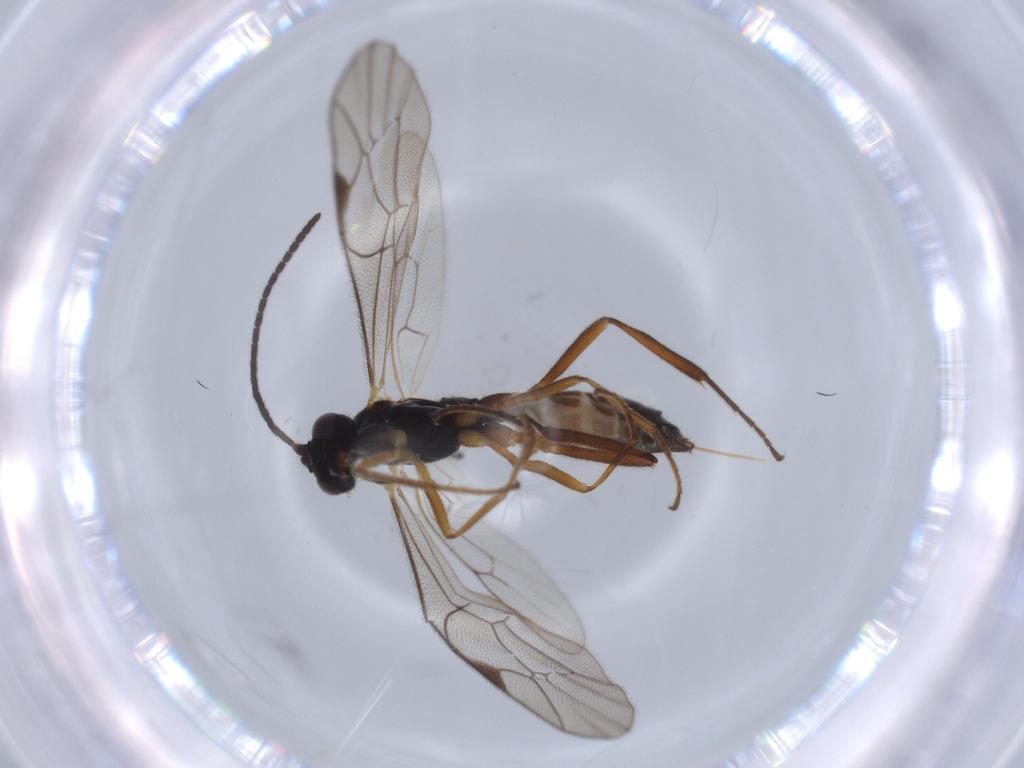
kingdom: Animalia
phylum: Arthropoda
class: Insecta
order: Hymenoptera
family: Ichneumonidae
